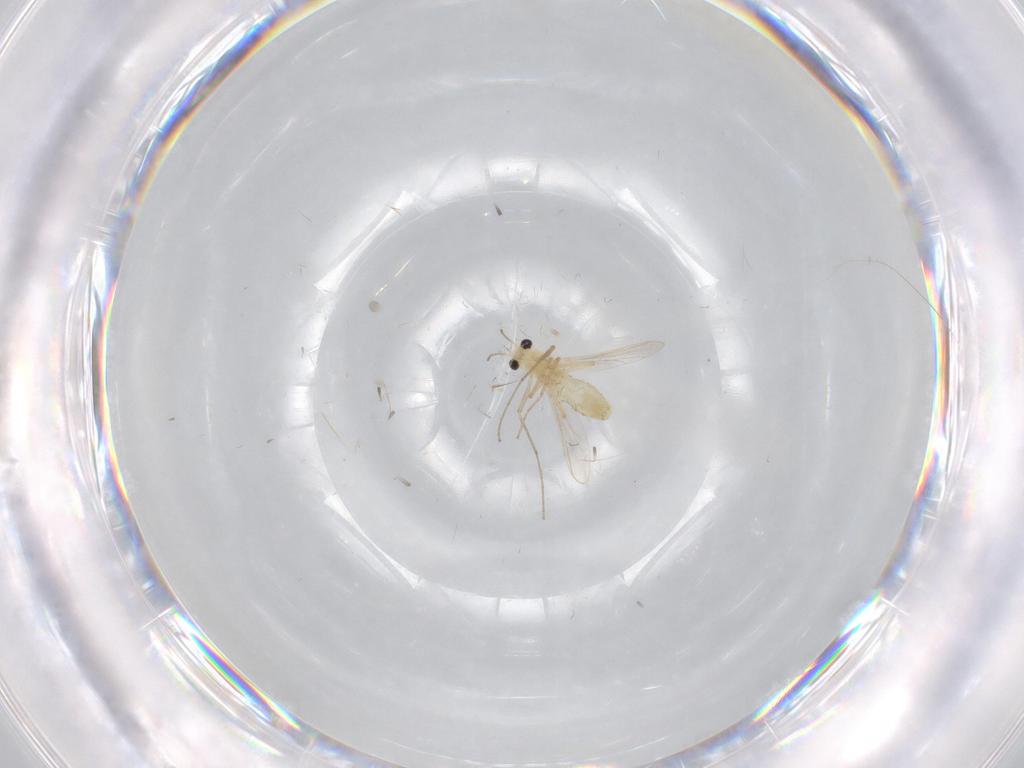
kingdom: Animalia
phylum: Arthropoda
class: Insecta
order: Diptera
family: Chironomidae
